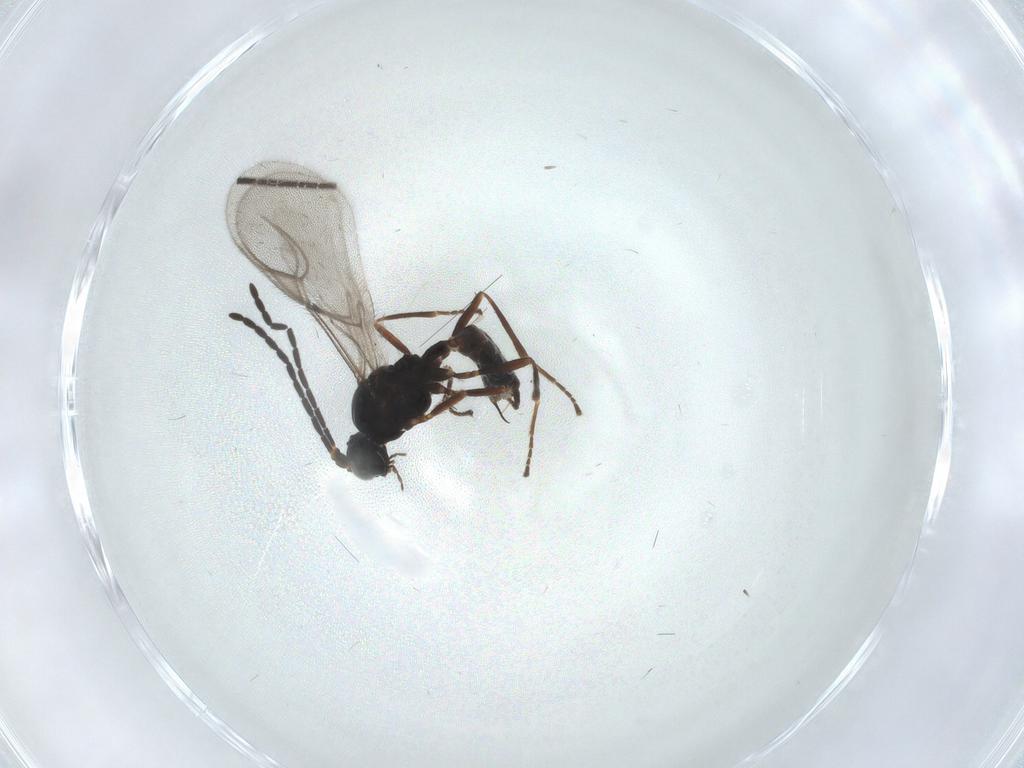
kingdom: Animalia
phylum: Arthropoda
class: Insecta
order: Hymenoptera
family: Braconidae
